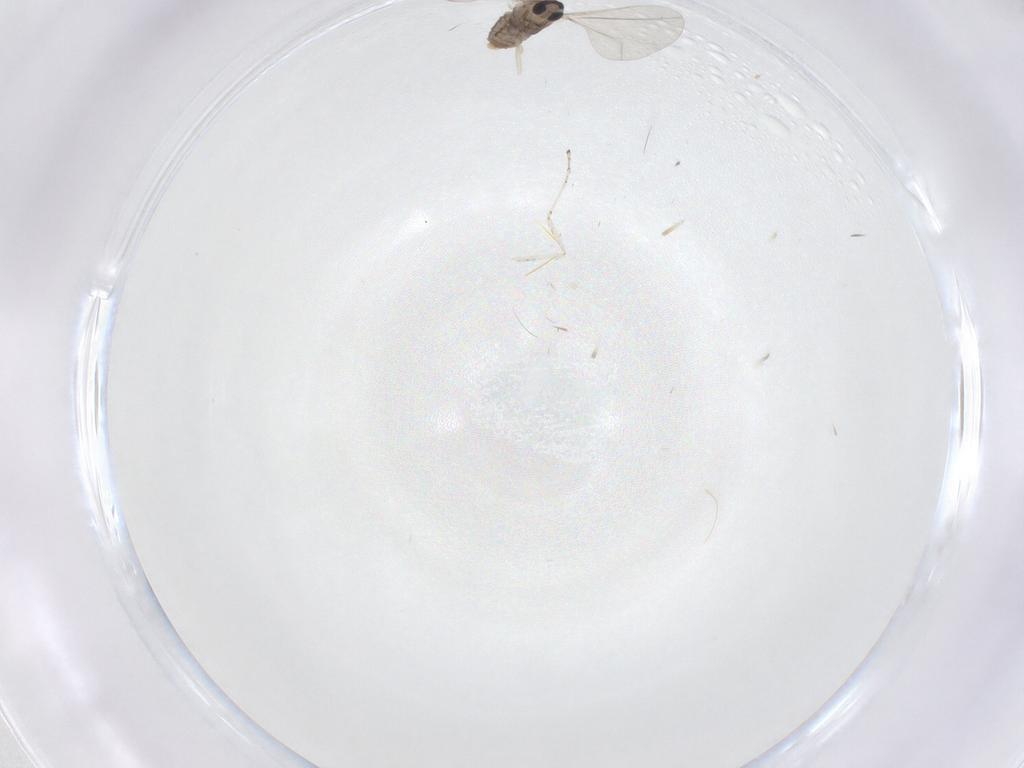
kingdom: Animalia
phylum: Arthropoda
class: Insecta
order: Diptera
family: Cecidomyiidae
